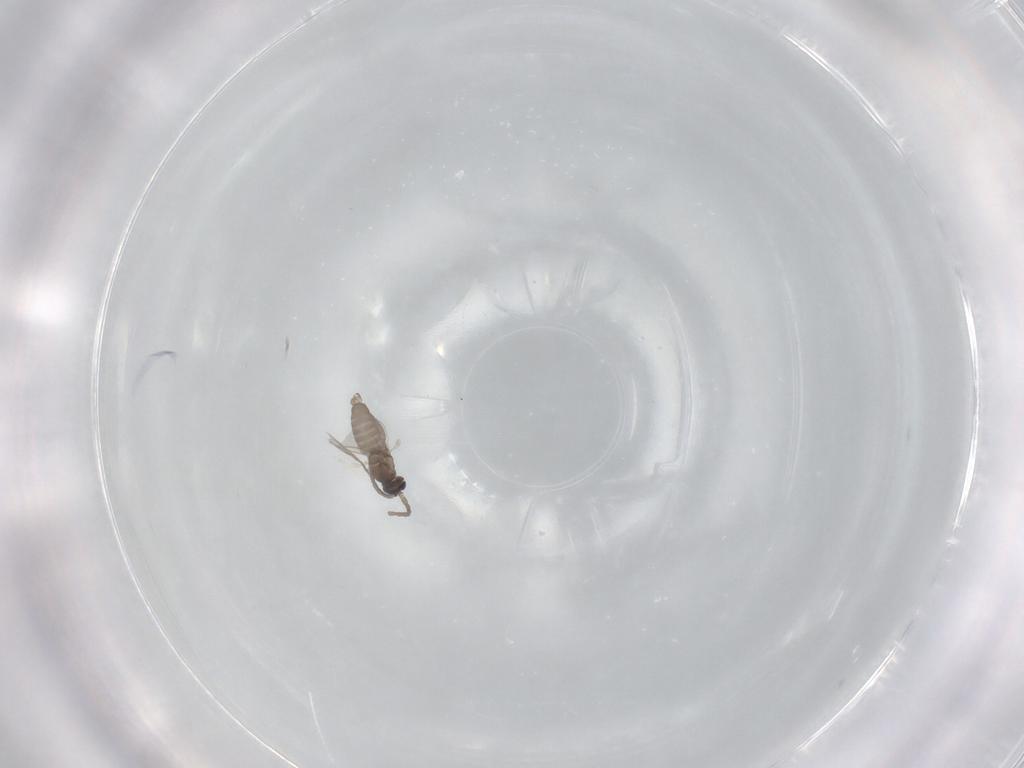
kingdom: Animalia
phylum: Arthropoda
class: Insecta
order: Diptera
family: Cecidomyiidae
